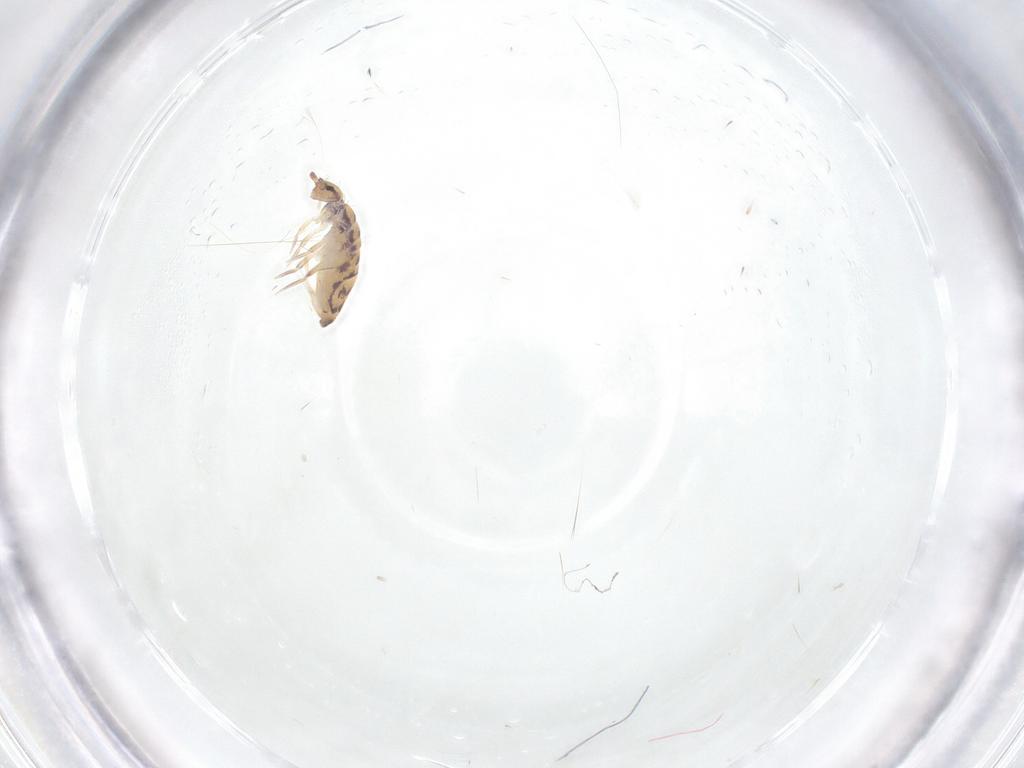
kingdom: Animalia
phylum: Arthropoda
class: Collembola
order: Entomobryomorpha
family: Entomobryidae
